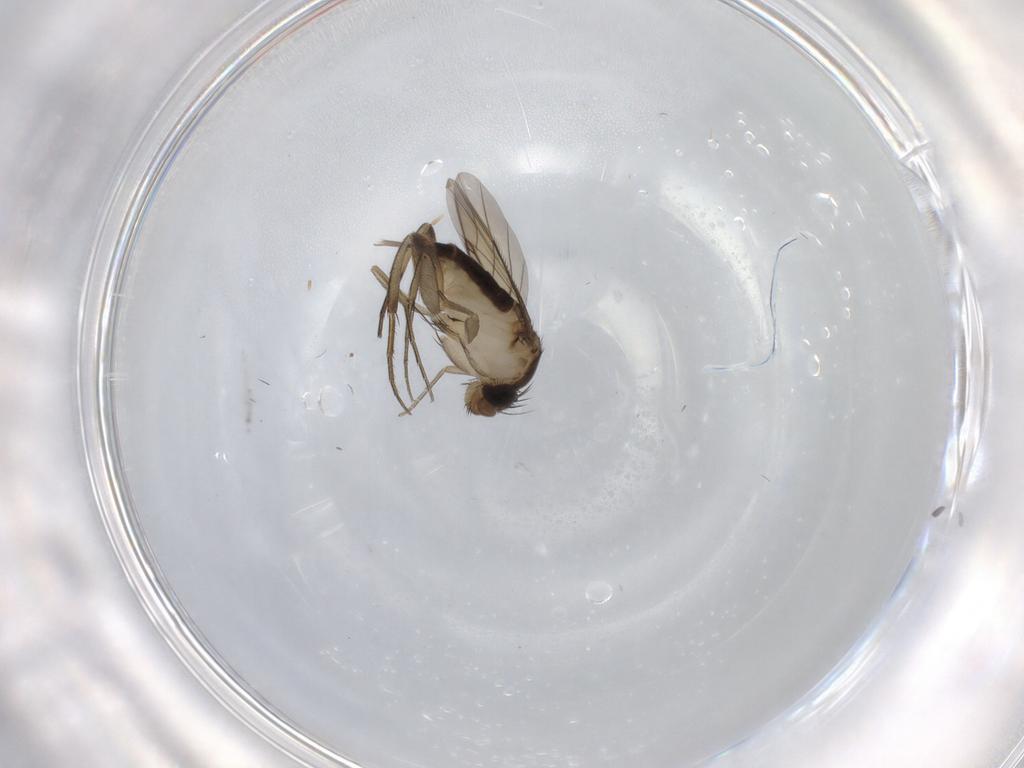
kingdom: Animalia
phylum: Arthropoda
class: Insecta
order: Diptera
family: Phoridae
